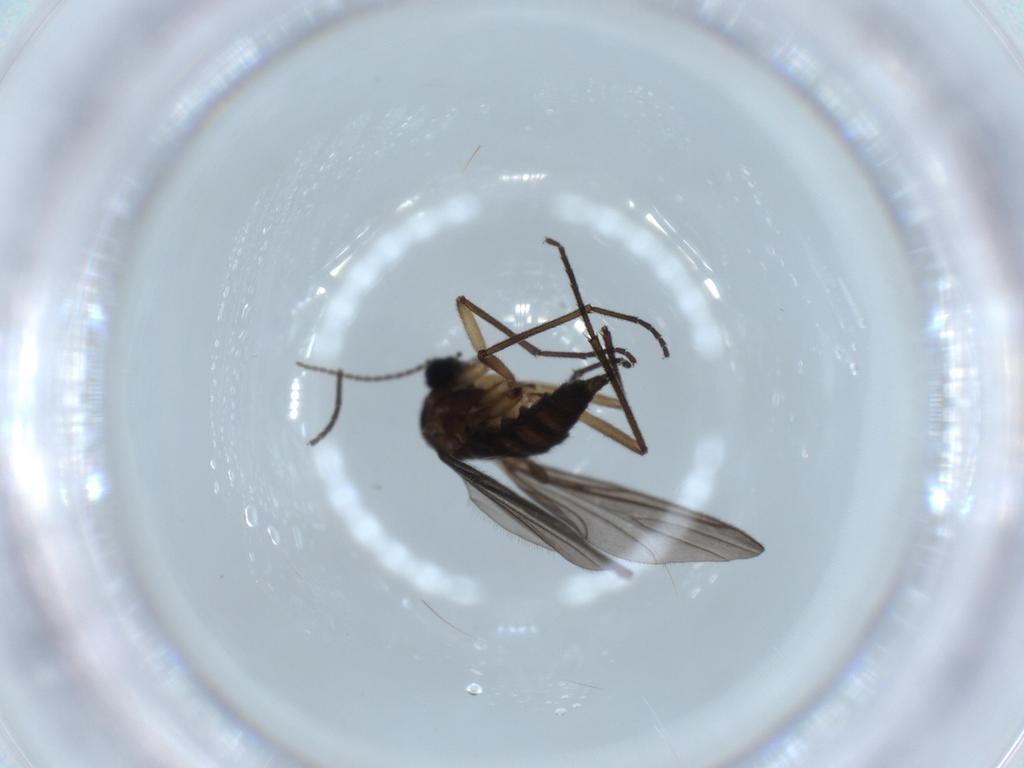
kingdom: Animalia
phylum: Arthropoda
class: Insecta
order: Diptera
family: Sciaridae
